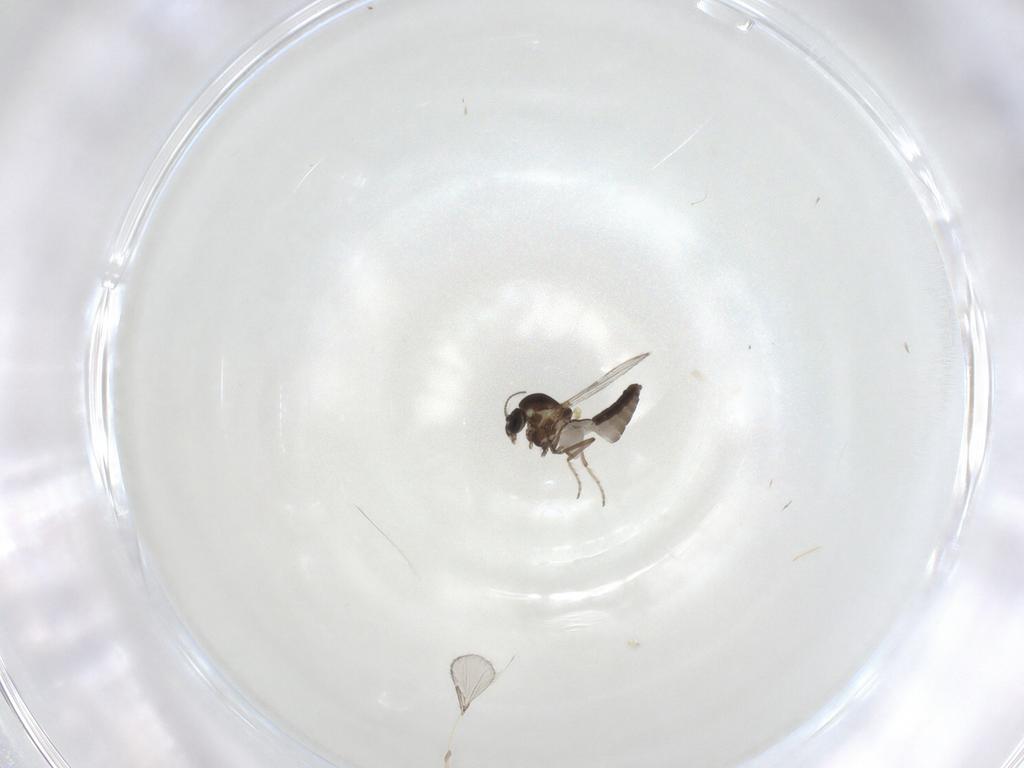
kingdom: Animalia
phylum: Arthropoda
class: Insecta
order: Diptera
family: Ceratopogonidae
